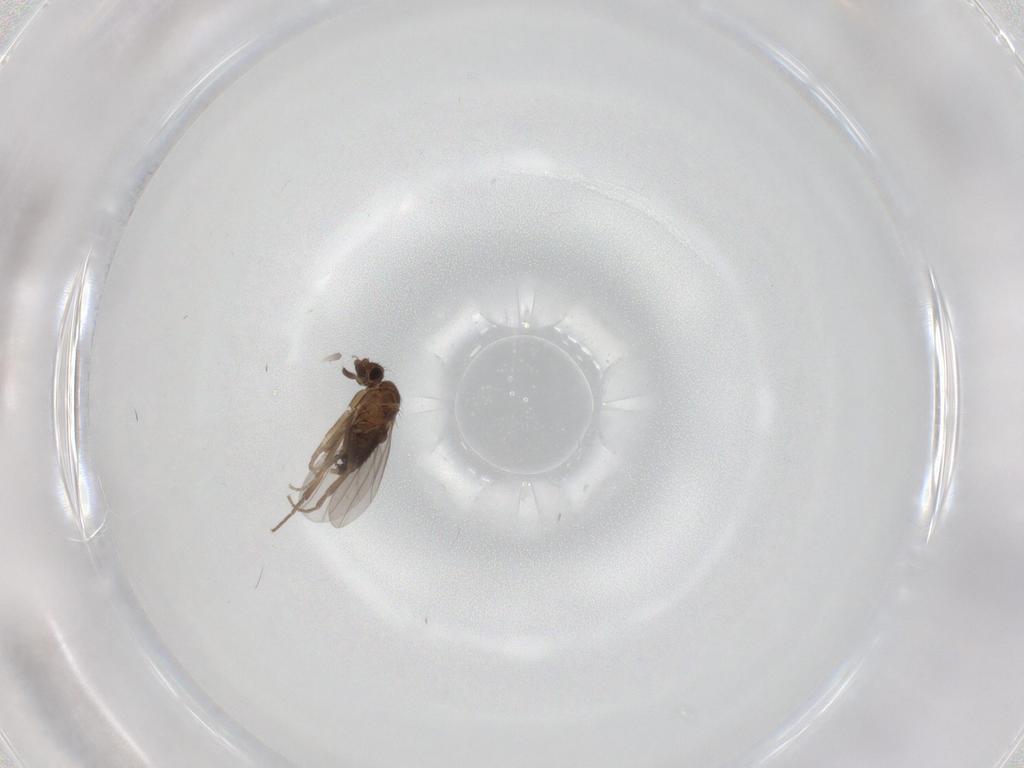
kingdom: Animalia
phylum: Arthropoda
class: Insecta
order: Diptera
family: Phoridae
